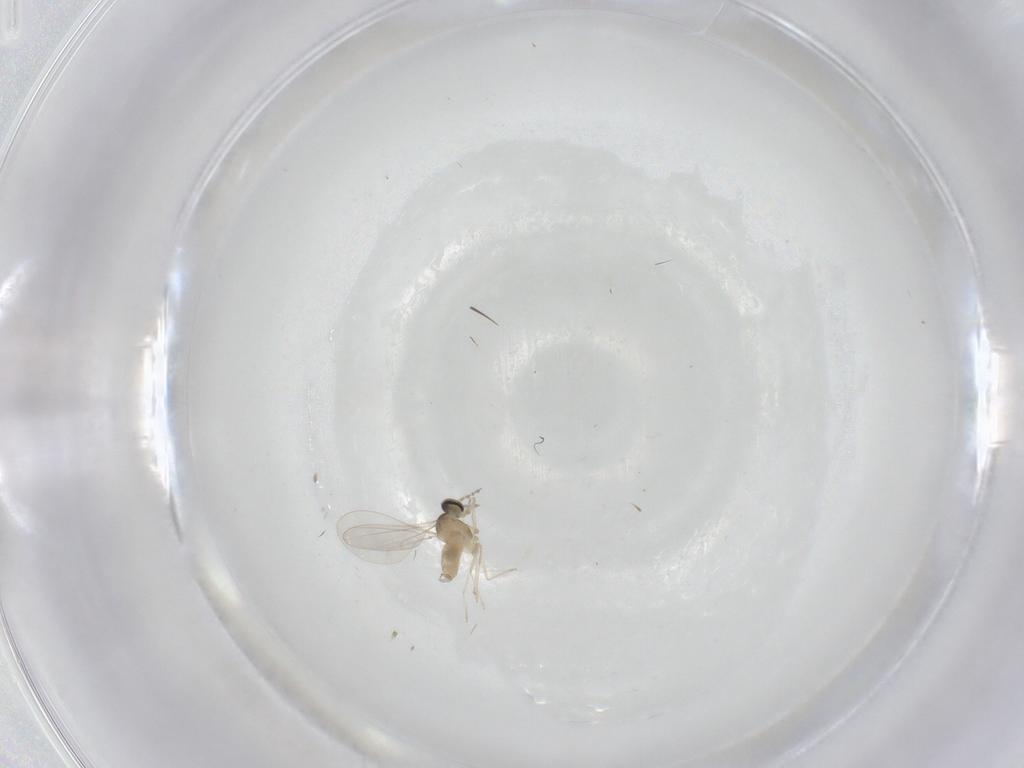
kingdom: Animalia
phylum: Arthropoda
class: Insecta
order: Diptera
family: Cecidomyiidae
